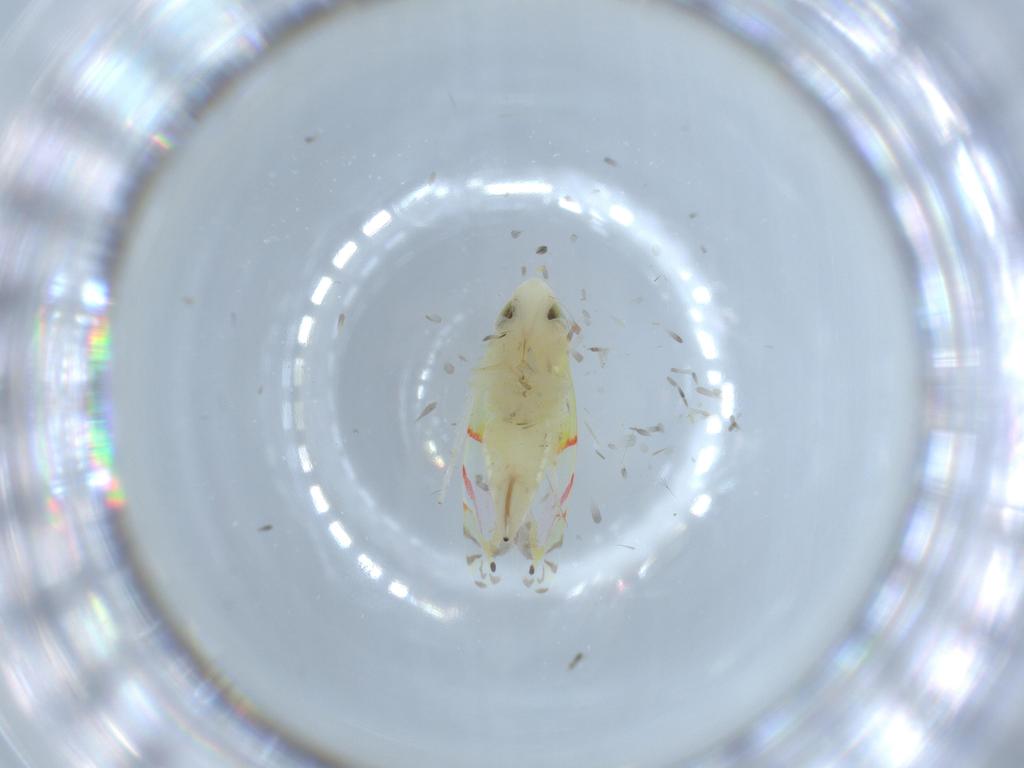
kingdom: Animalia
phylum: Arthropoda
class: Insecta
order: Hemiptera
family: Cicadellidae
